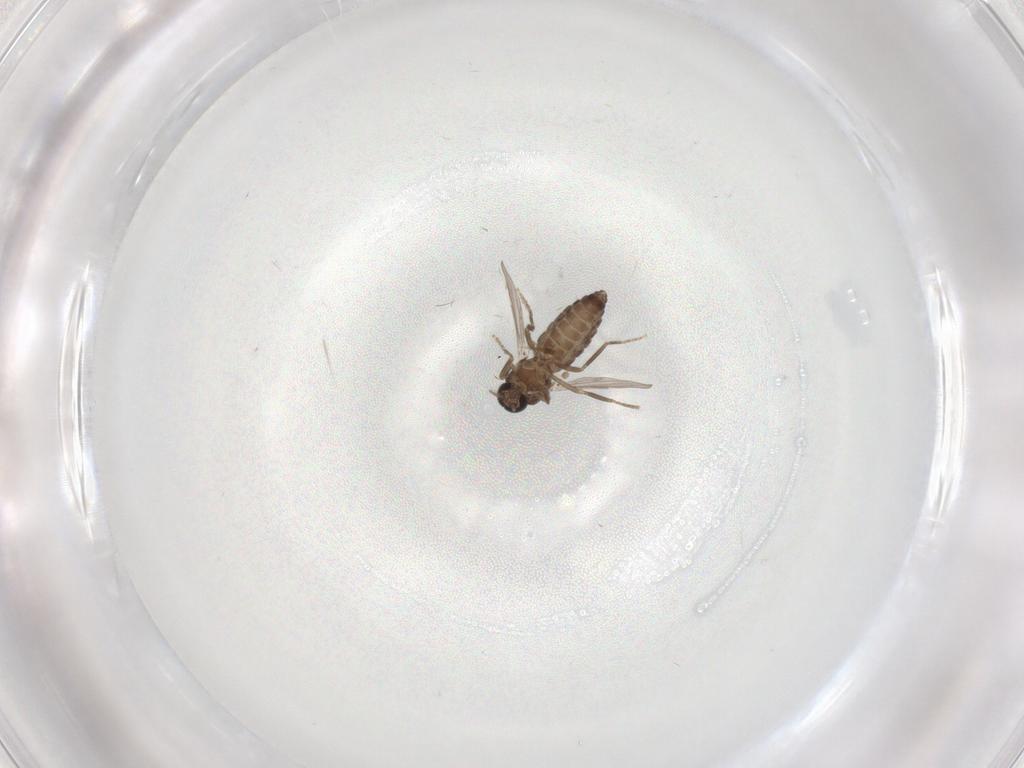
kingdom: Animalia
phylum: Arthropoda
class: Insecta
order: Diptera
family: Ceratopogonidae
